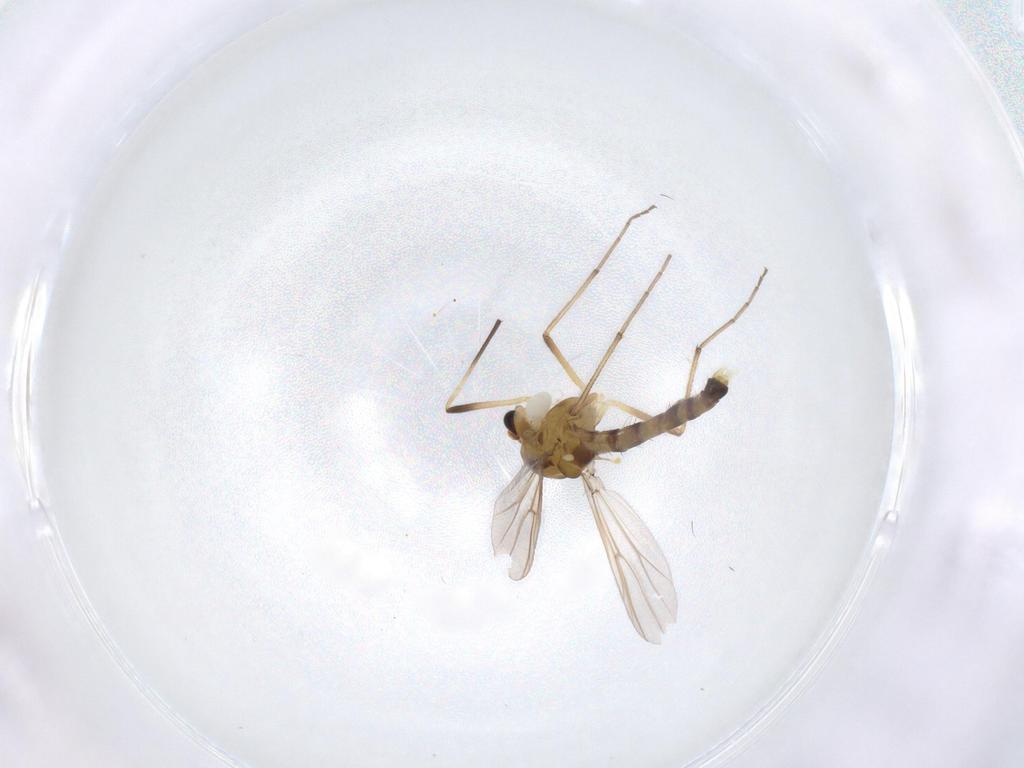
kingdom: Animalia
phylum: Arthropoda
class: Insecta
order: Diptera
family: Chironomidae
